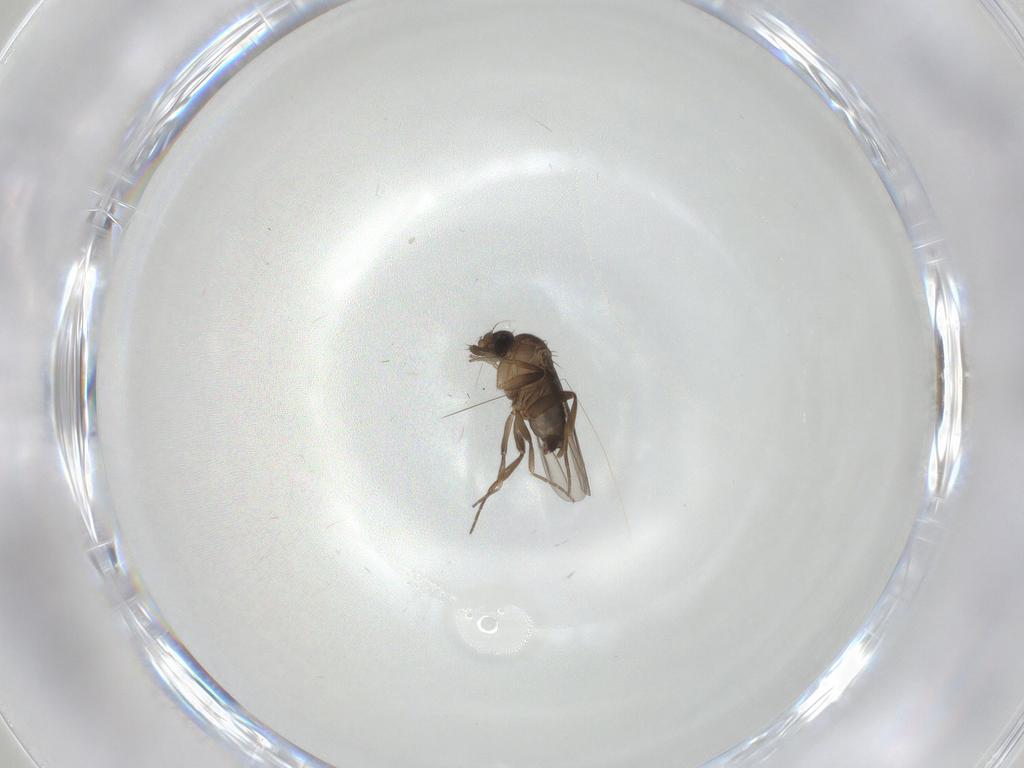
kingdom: Animalia
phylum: Arthropoda
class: Insecta
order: Diptera
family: Phoridae
